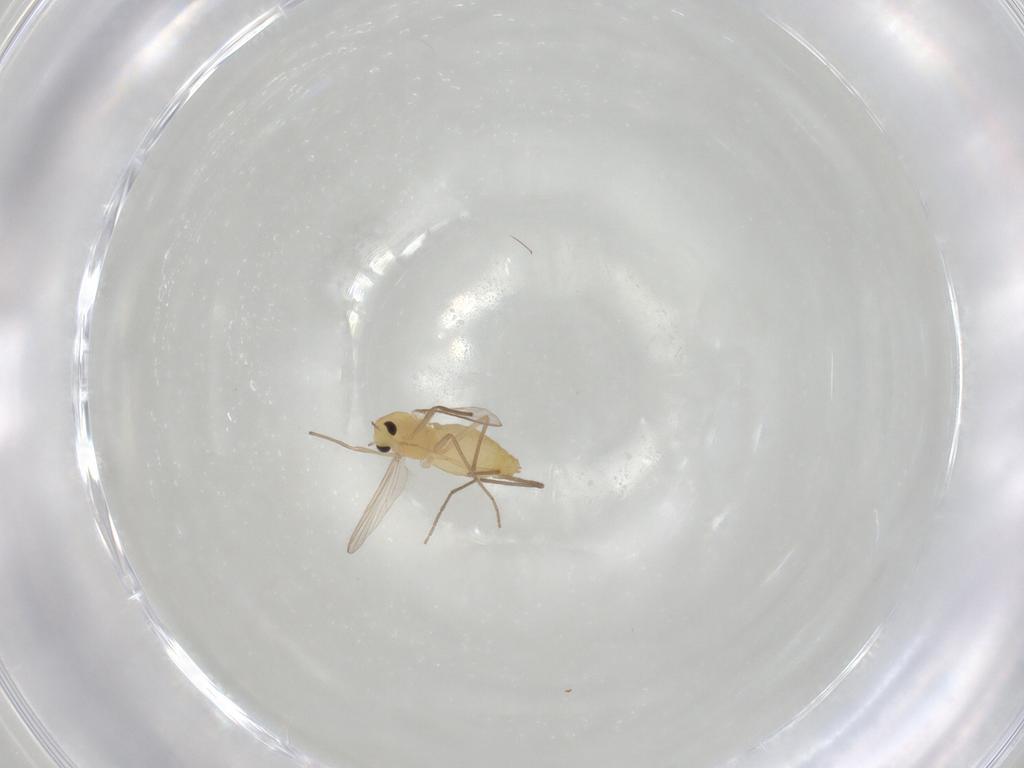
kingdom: Animalia
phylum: Arthropoda
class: Insecta
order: Diptera
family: Chironomidae
